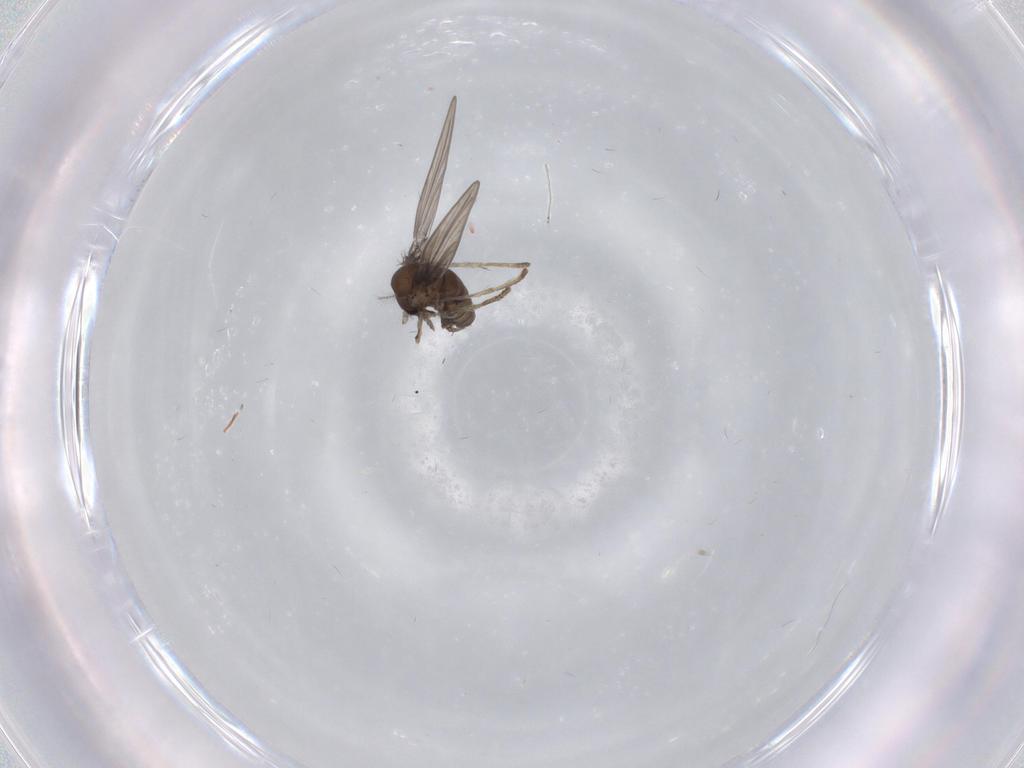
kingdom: Animalia
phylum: Arthropoda
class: Insecta
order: Diptera
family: Psychodidae
